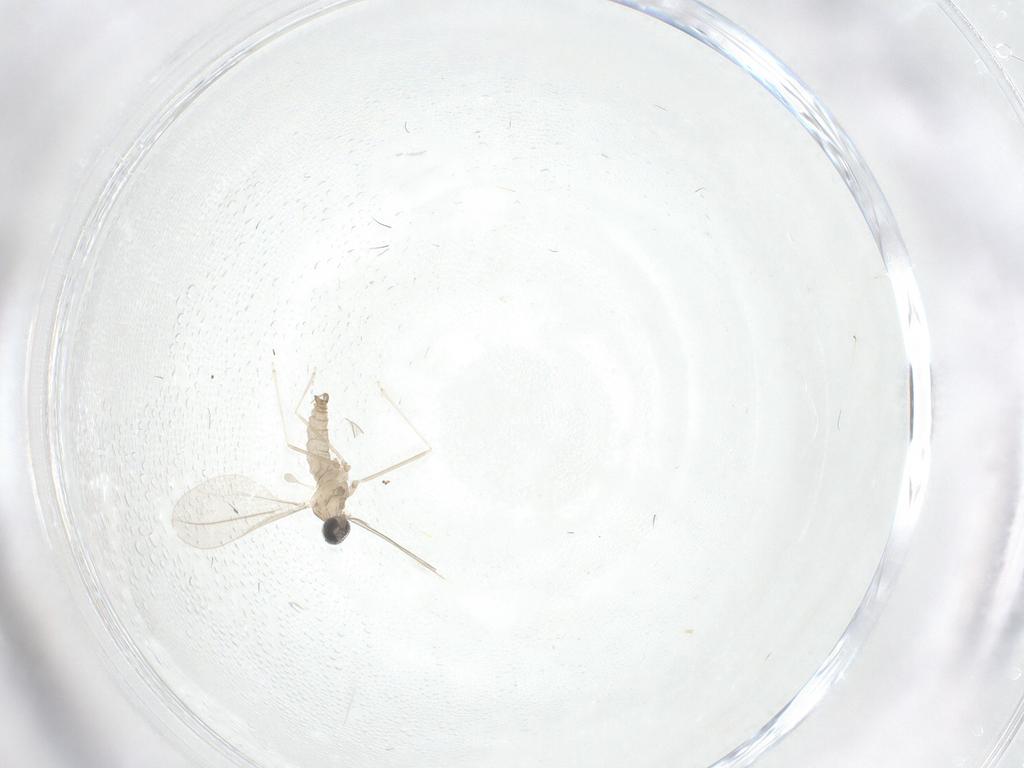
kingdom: Animalia
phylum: Arthropoda
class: Insecta
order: Diptera
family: Cecidomyiidae
